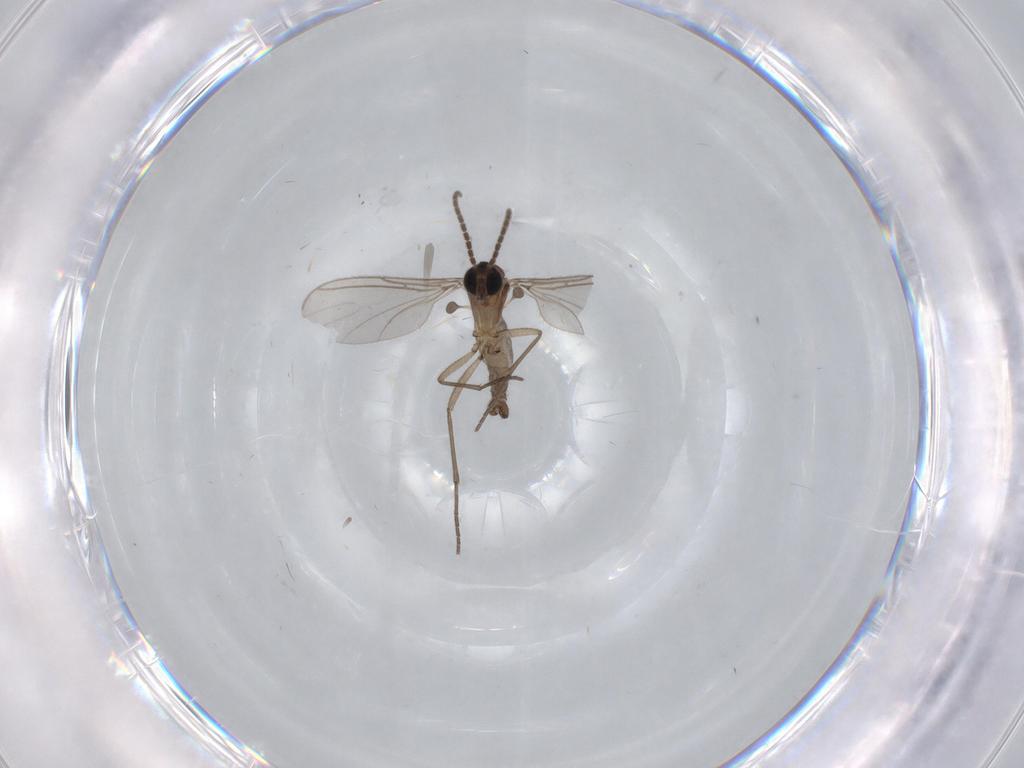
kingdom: Animalia
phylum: Arthropoda
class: Insecta
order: Diptera
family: Sciaridae
